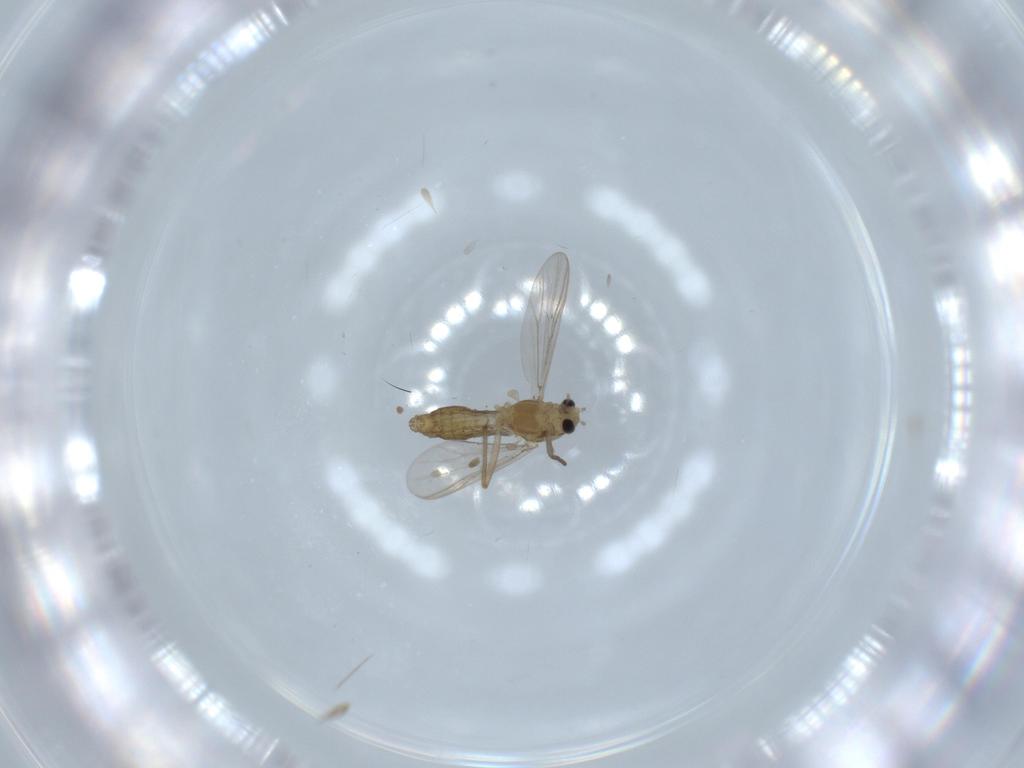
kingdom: Animalia
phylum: Arthropoda
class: Insecta
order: Diptera
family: Chironomidae
